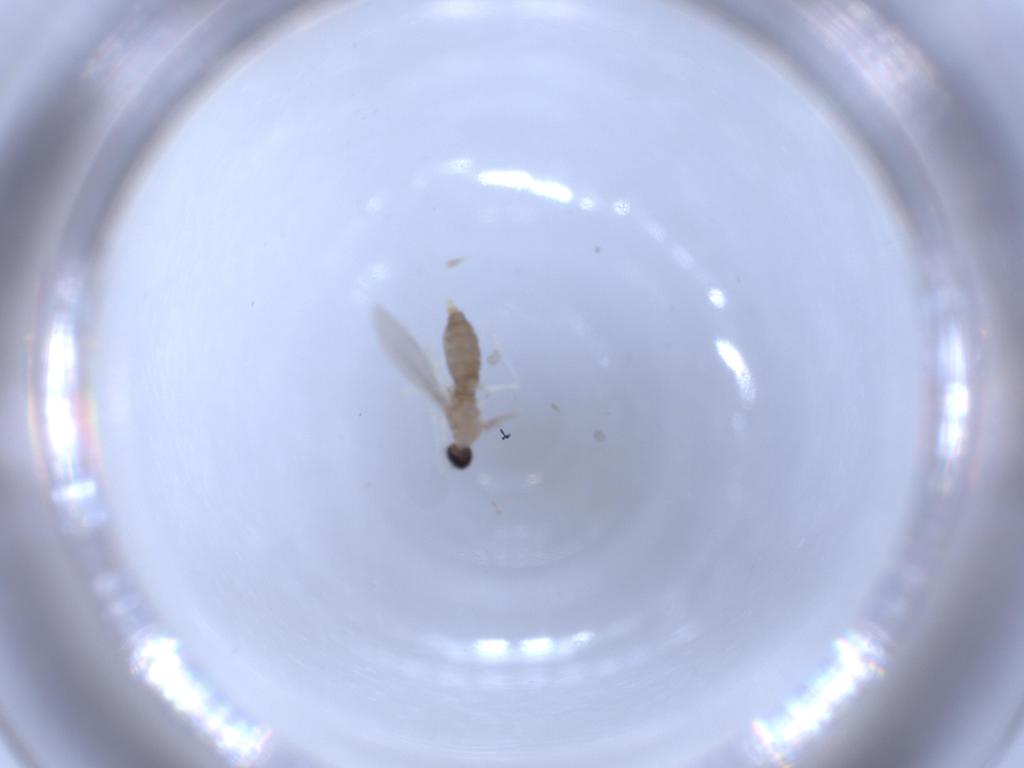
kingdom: Animalia
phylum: Arthropoda
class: Insecta
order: Diptera
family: Cecidomyiidae
